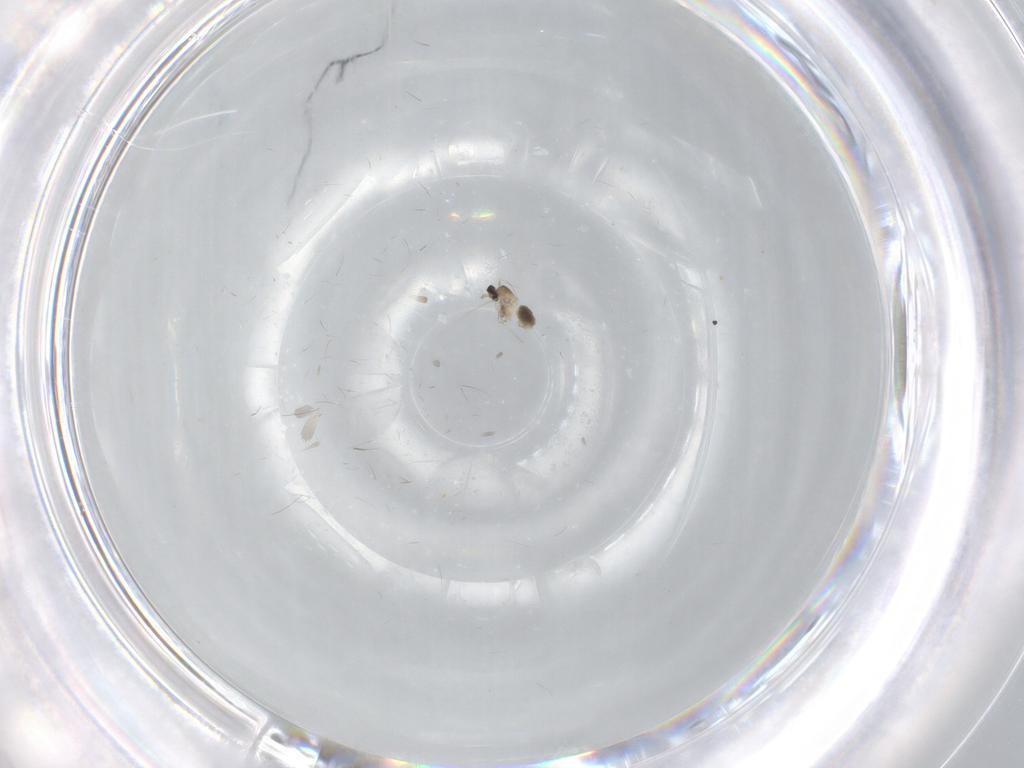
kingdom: Animalia
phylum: Arthropoda
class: Insecta
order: Diptera
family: Cecidomyiidae
